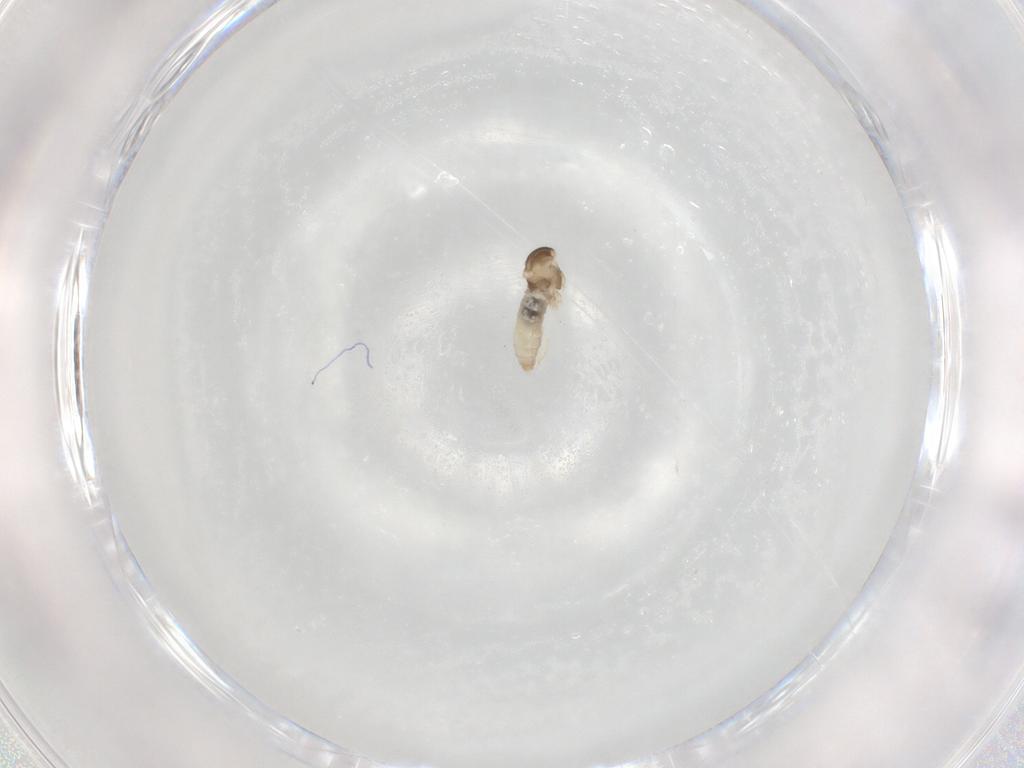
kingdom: Animalia
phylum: Arthropoda
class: Insecta
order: Diptera
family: Cecidomyiidae
